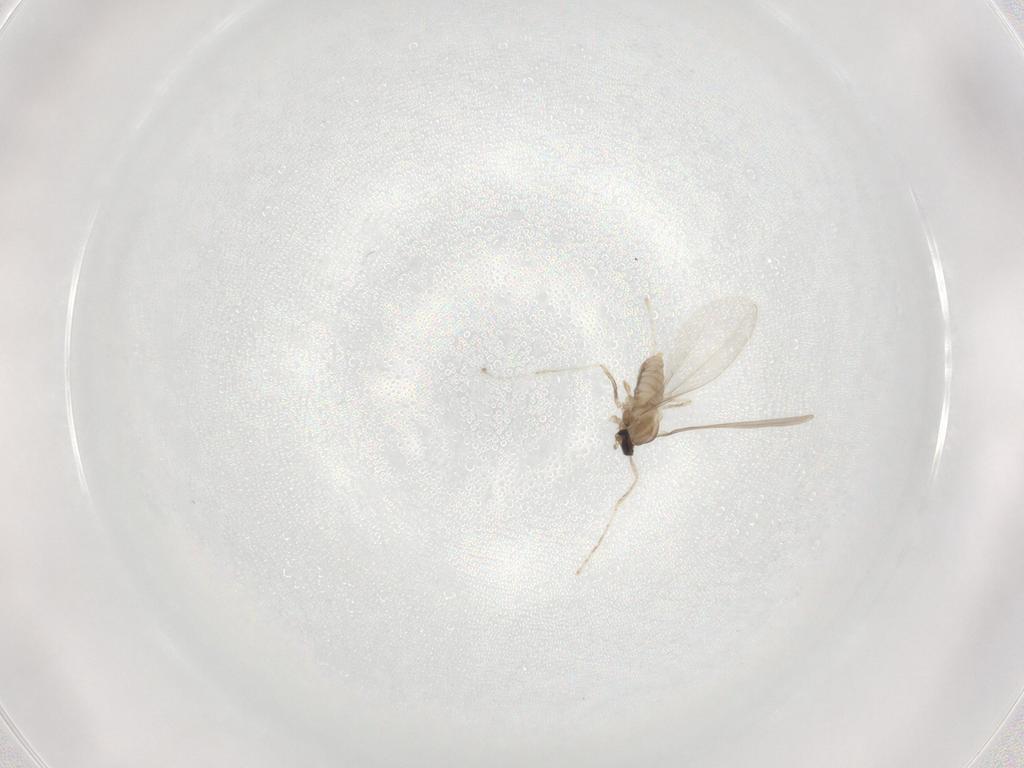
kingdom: Animalia
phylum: Arthropoda
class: Insecta
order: Diptera
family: Cecidomyiidae
